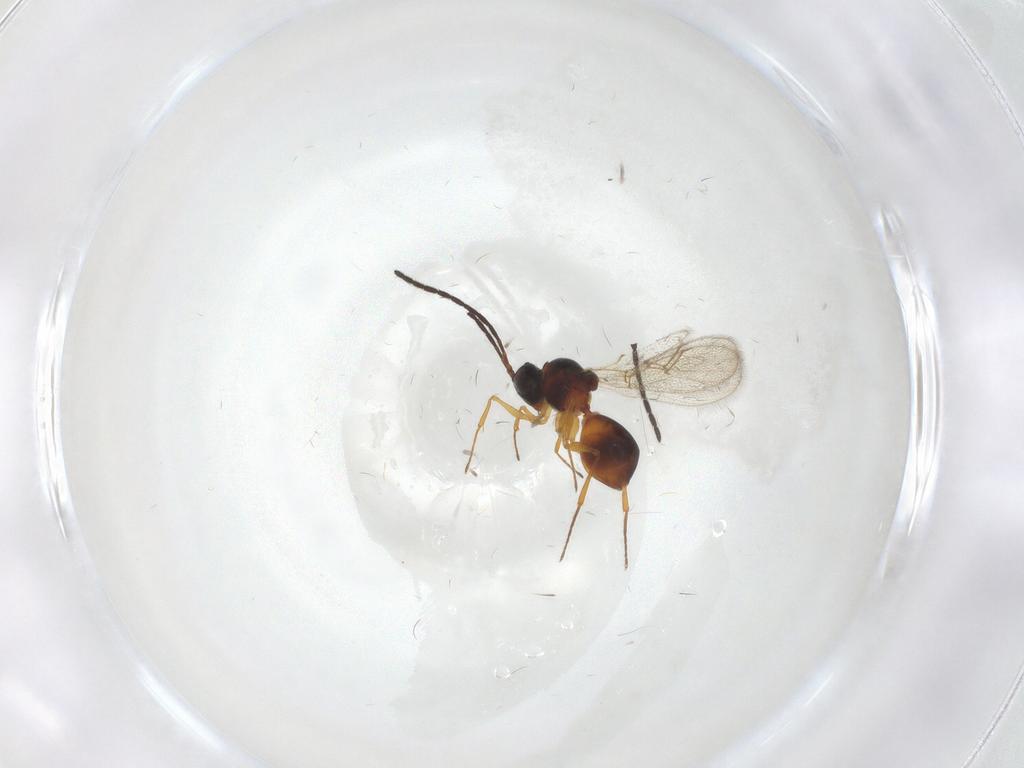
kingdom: Animalia
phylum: Arthropoda
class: Insecta
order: Hymenoptera
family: Figitidae
